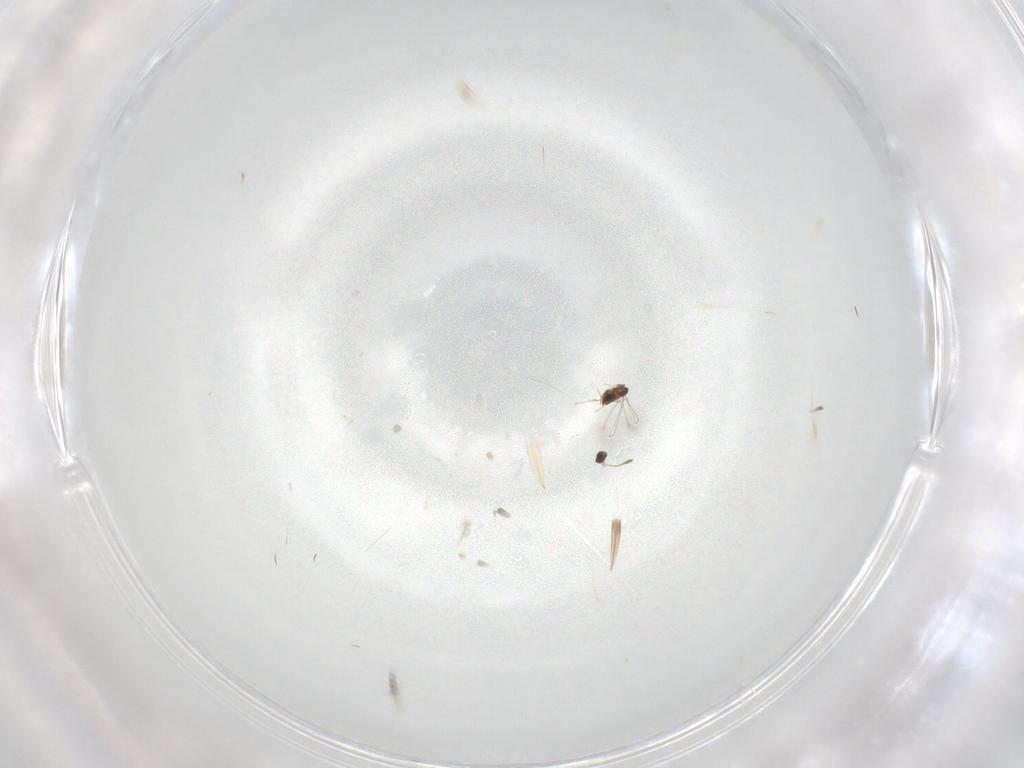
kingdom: Animalia
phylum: Arthropoda
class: Insecta
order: Hymenoptera
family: Mymaridae
